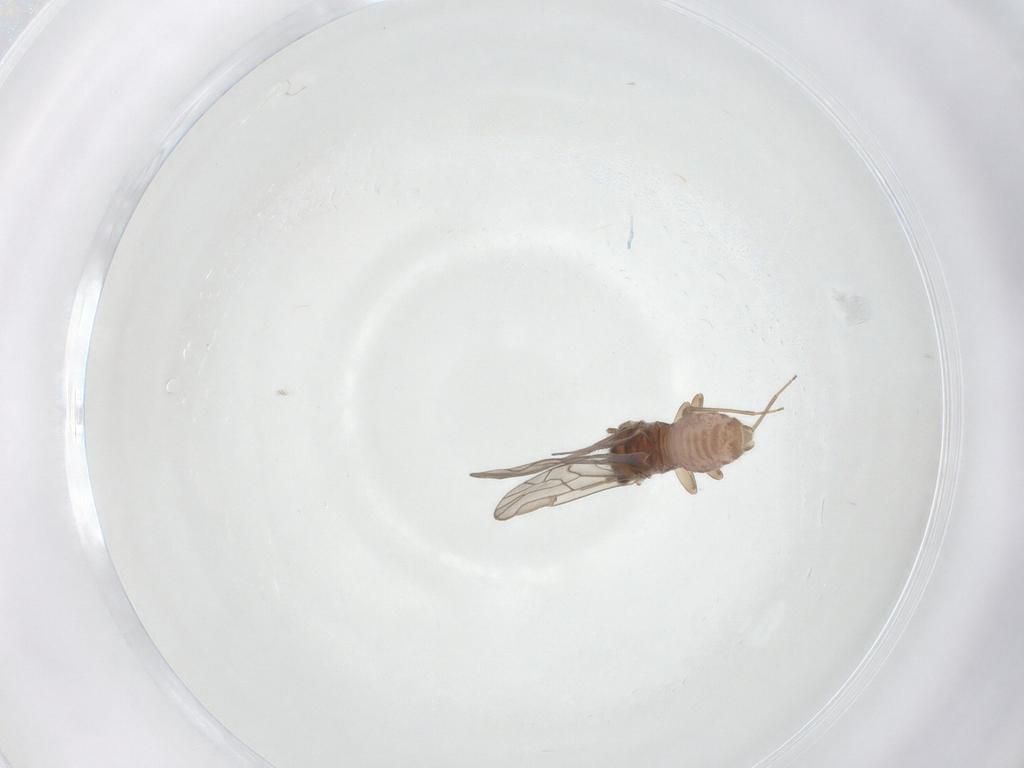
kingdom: Animalia
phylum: Arthropoda
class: Insecta
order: Psocodea
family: Ectopsocidae
